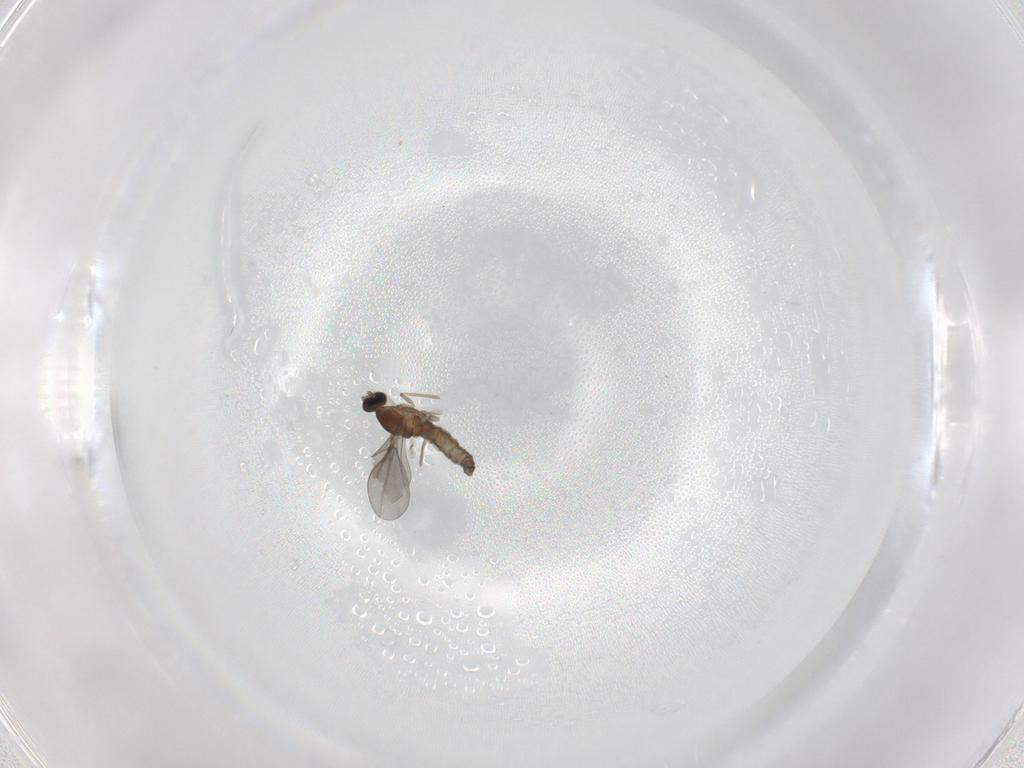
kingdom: Animalia
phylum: Arthropoda
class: Insecta
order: Diptera
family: Cecidomyiidae
